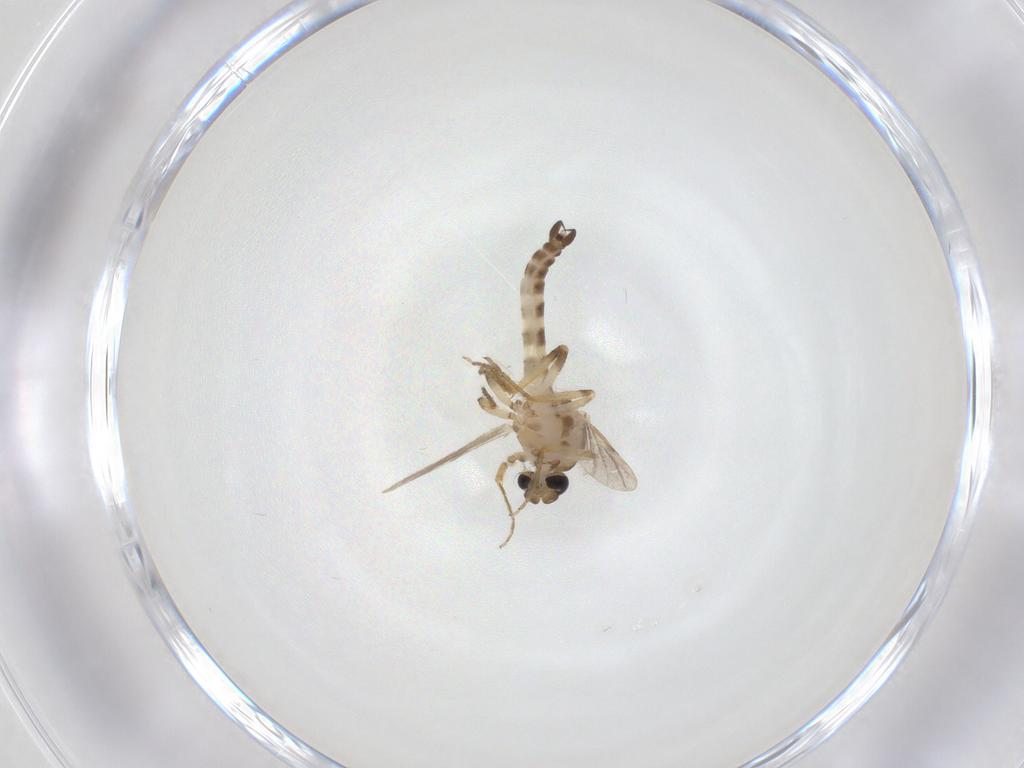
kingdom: Animalia
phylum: Arthropoda
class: Insecta
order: Diptera
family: Ceratopogonidae
